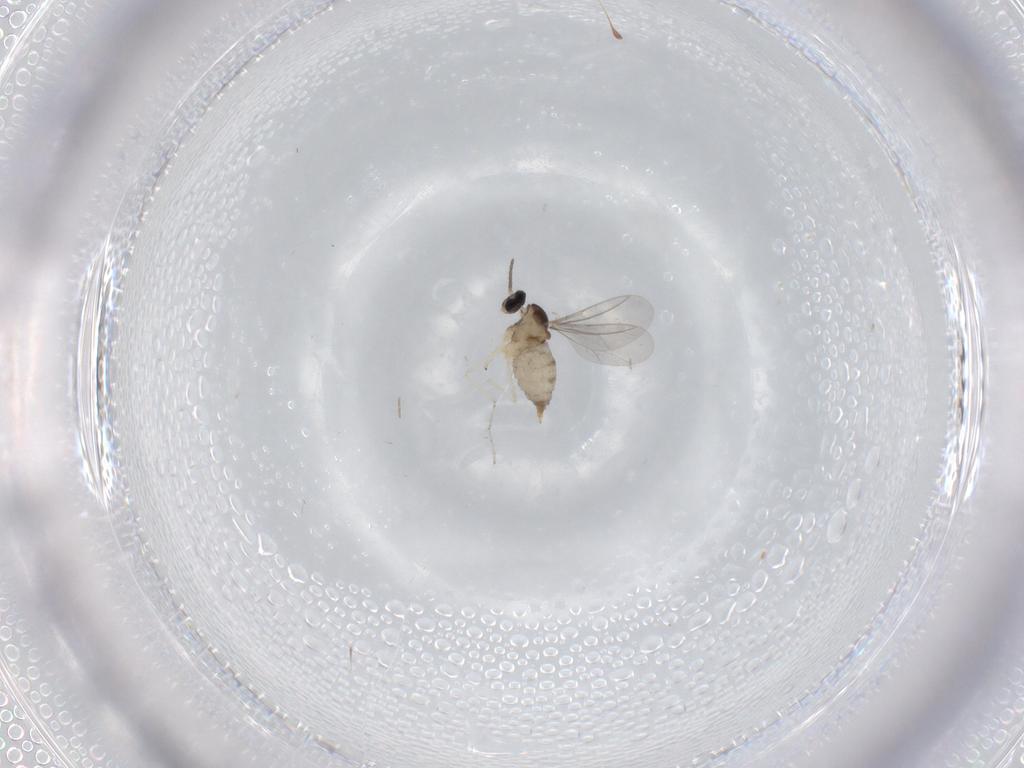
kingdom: Animalia
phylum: Arthropoda
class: Insecta
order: Diptera
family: Cecidomyiidae
